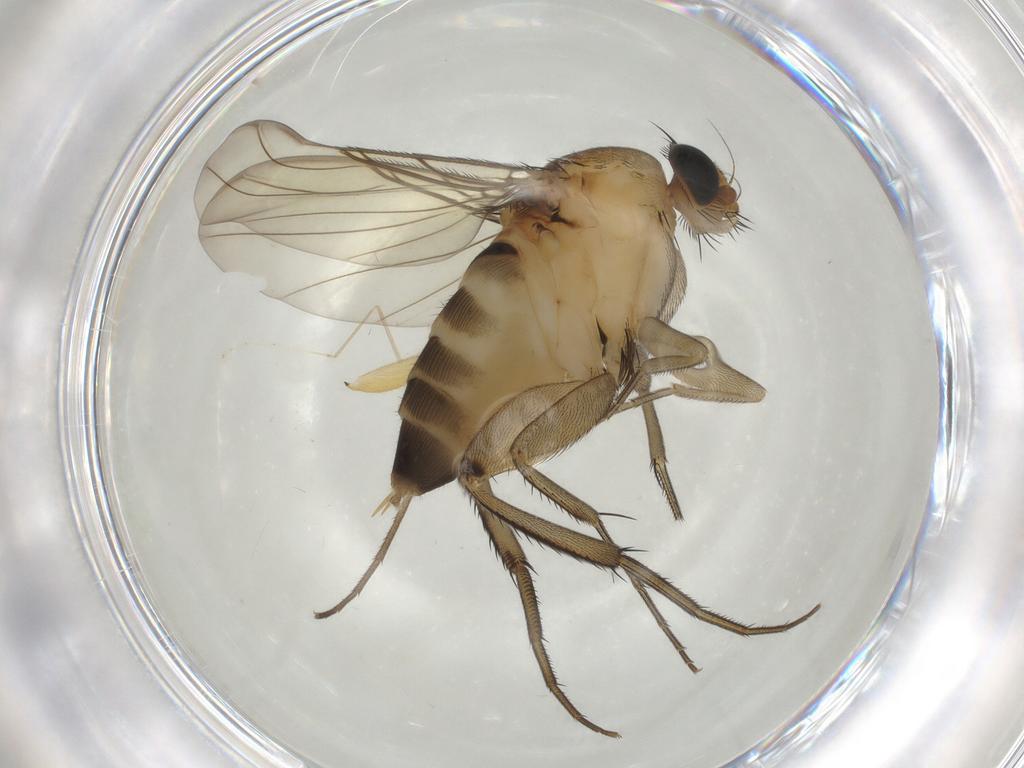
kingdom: Animalia
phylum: Arthropoda
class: Insecta
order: Diptera
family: Phoridae
